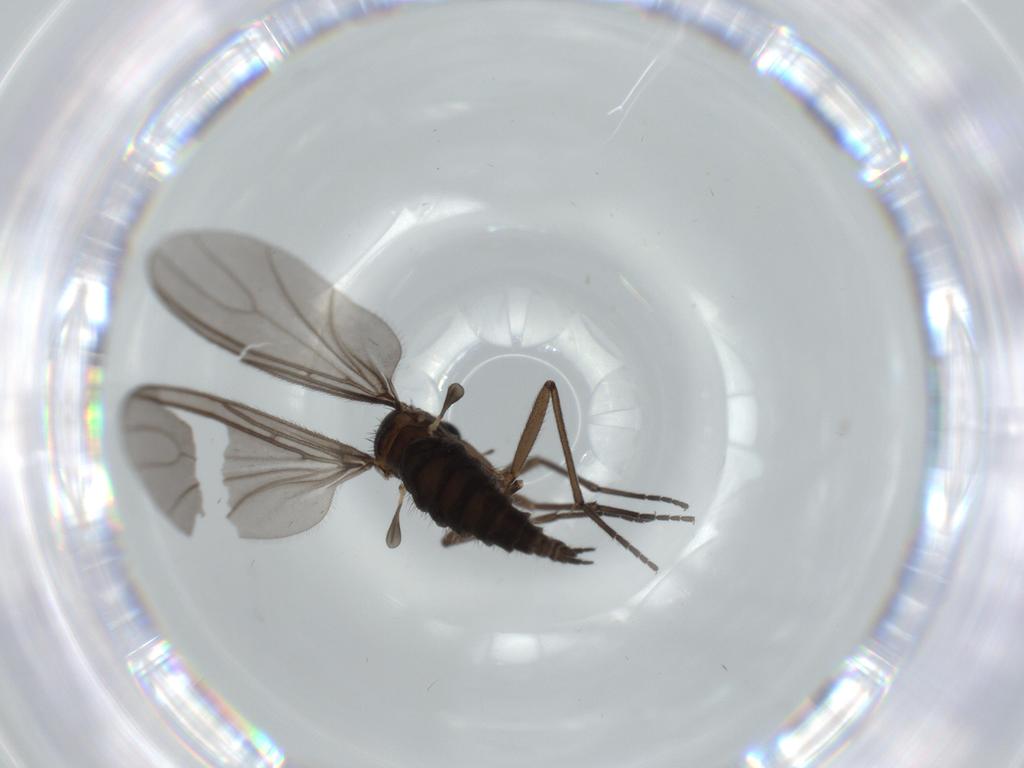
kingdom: Animalia
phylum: Arthropoda
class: Insecta
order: Diptera
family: Sciaridae
